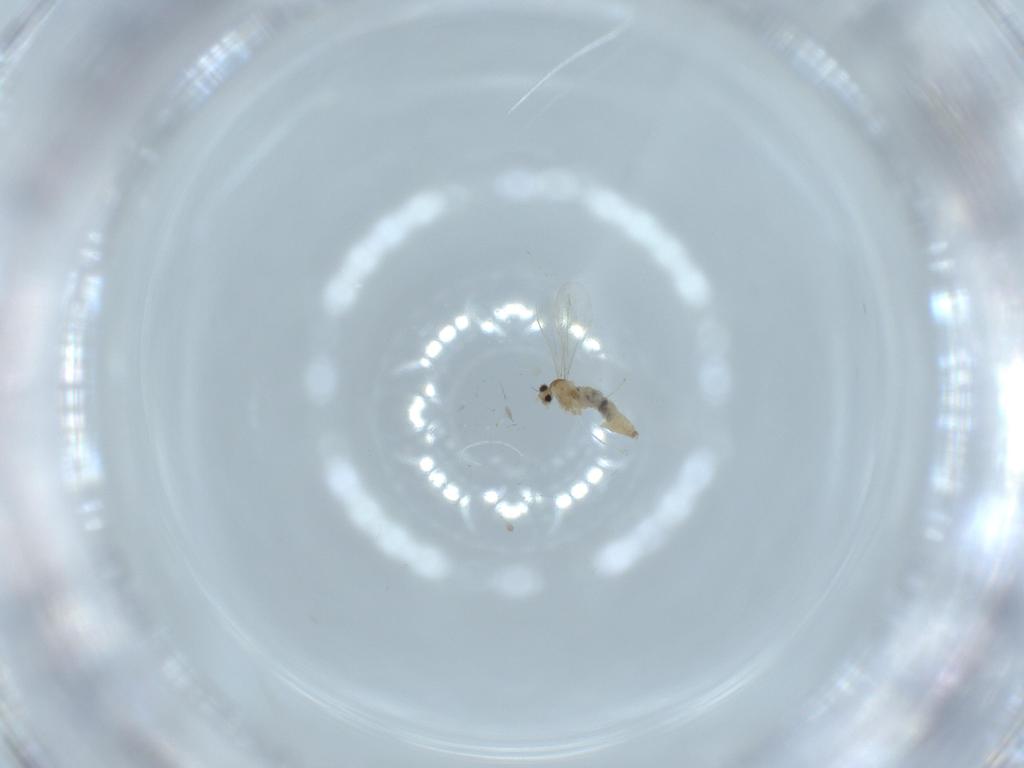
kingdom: Animalia
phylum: Arthropoda
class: Insecta
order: Diptera
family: Cecidomyiidae
